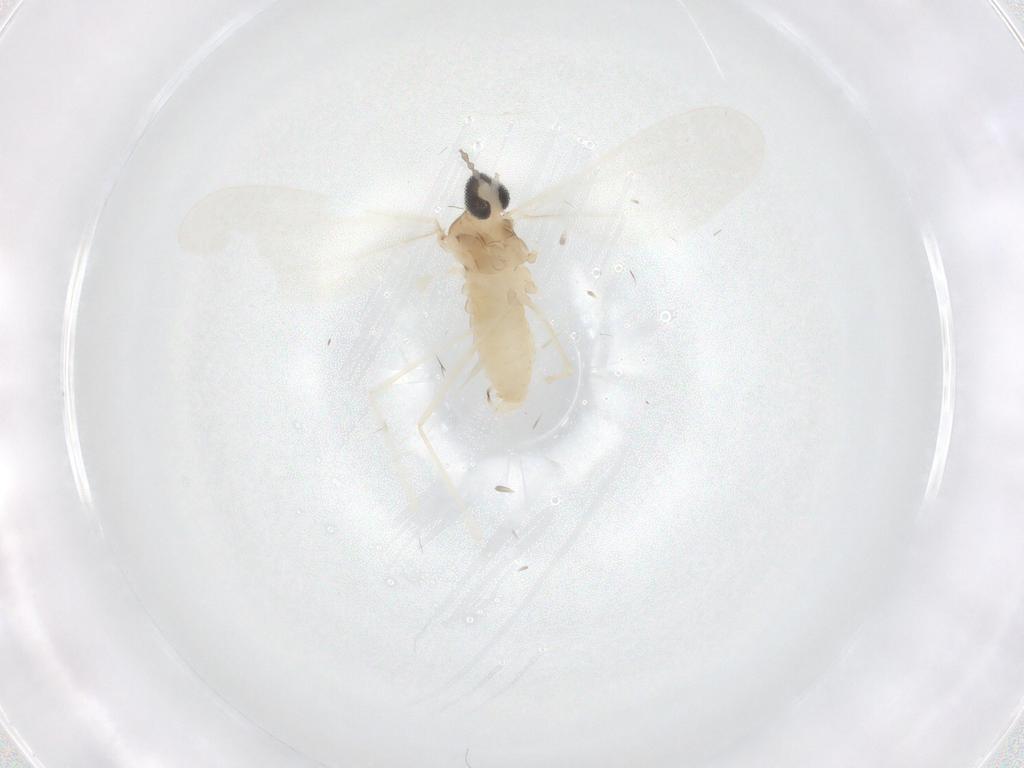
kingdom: Animalia
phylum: Arthropoda
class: Insecta
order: Diptera
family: Cecidomyiidae
